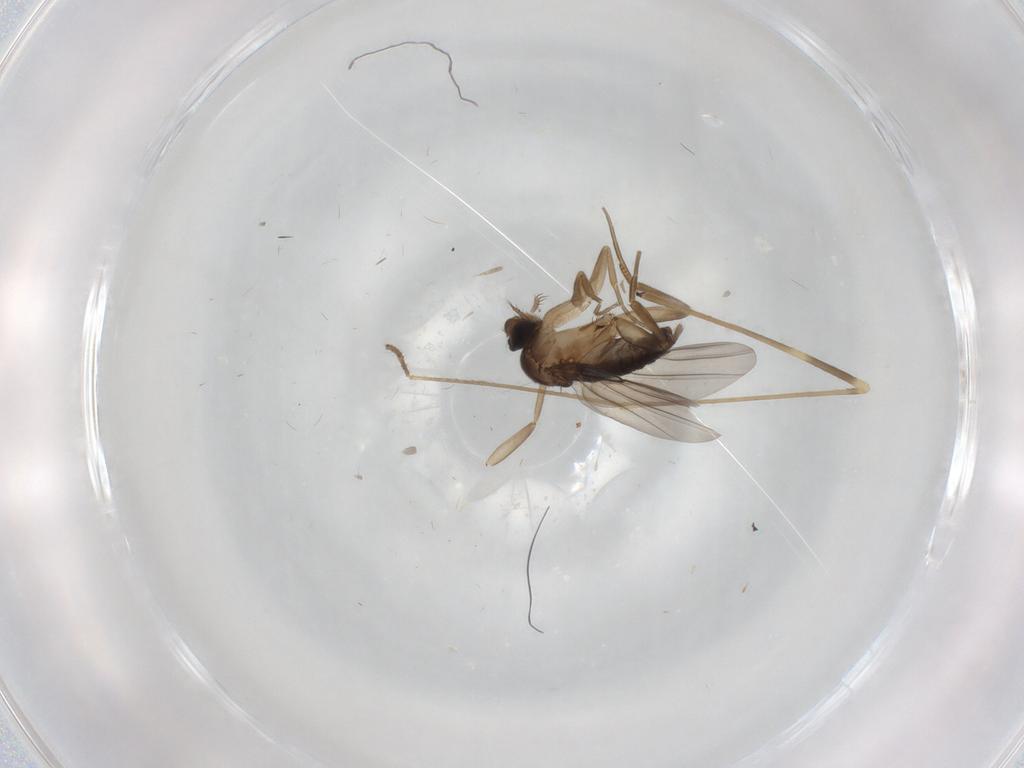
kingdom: Animalia
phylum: Arthropoda
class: Insecta
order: Diptera
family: Phoridae
